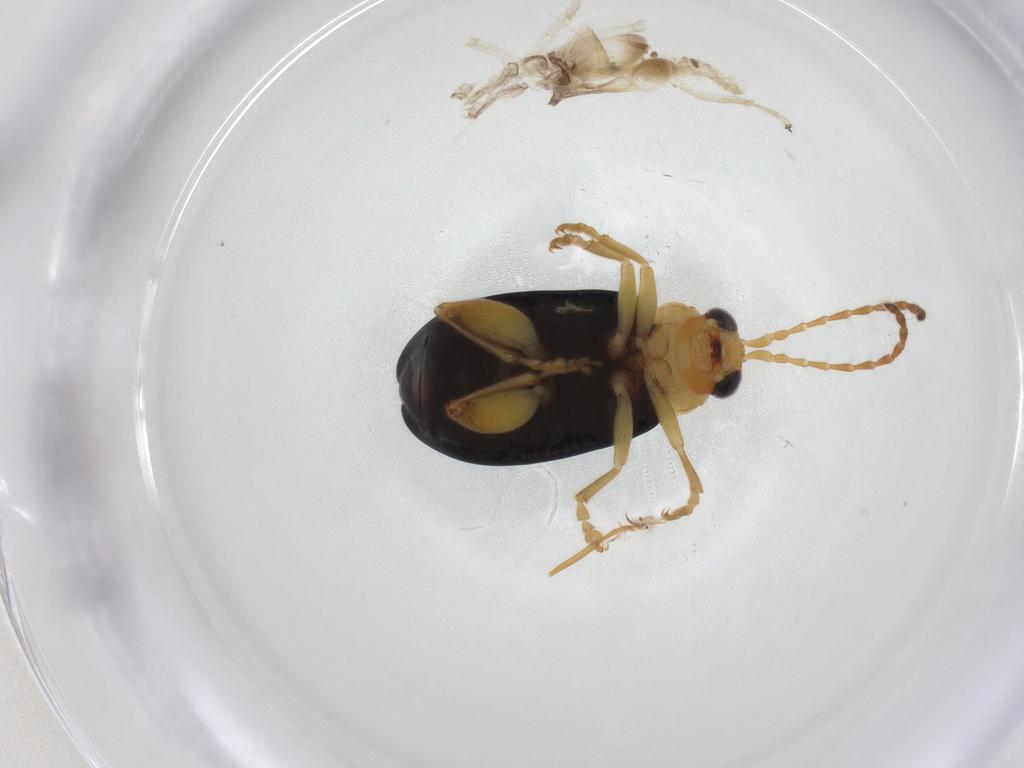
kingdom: Animalia
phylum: Arthropoda
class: Insecta
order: Coleoptera
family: Chrysomelidae
